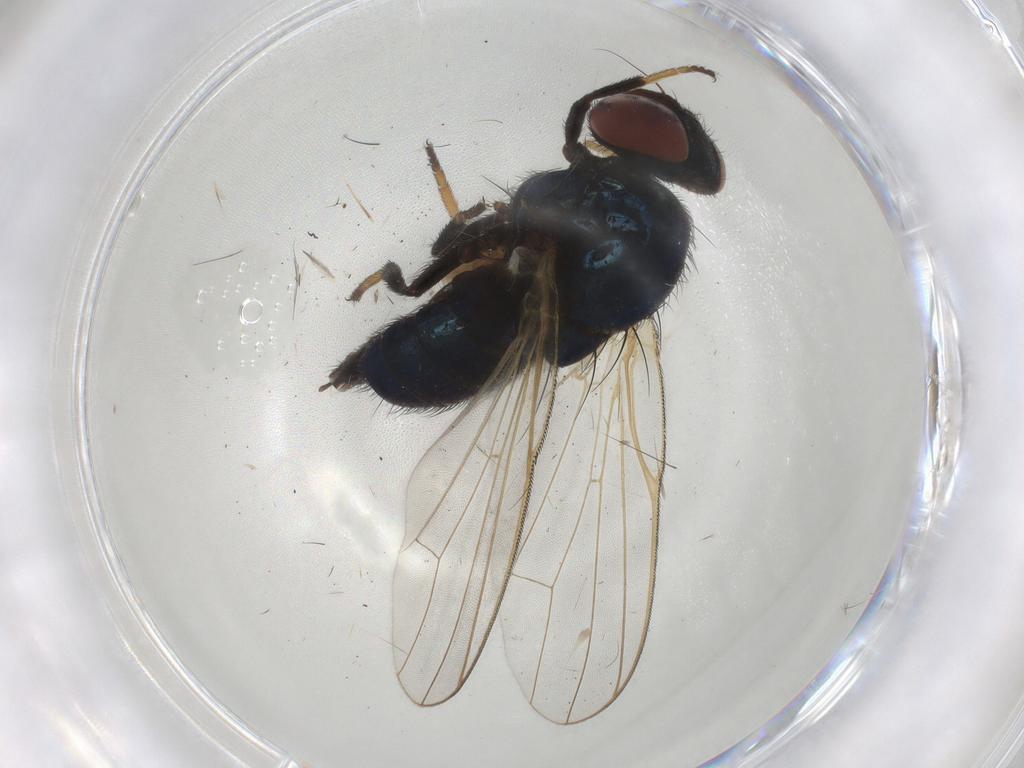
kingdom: Animalia
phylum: Arthropoda
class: Insecta
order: Diptera
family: Lonchaeidae
